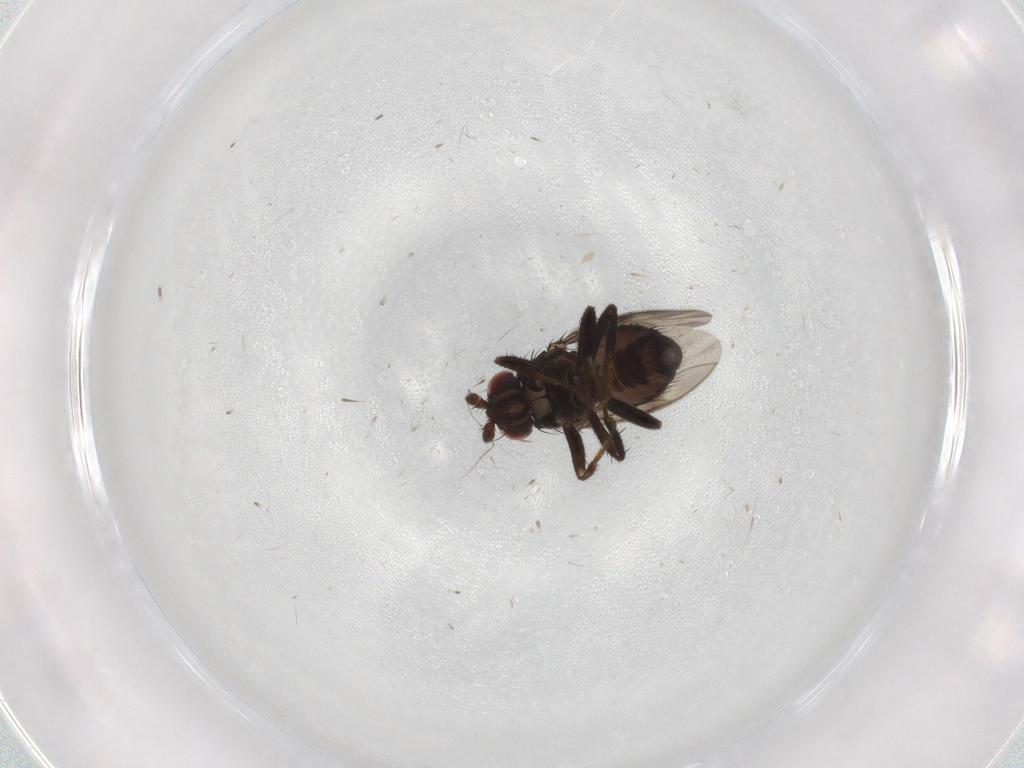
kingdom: Animalia
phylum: Arthropoda
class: Insecta
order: Diptera
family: Sphaeroceridae
